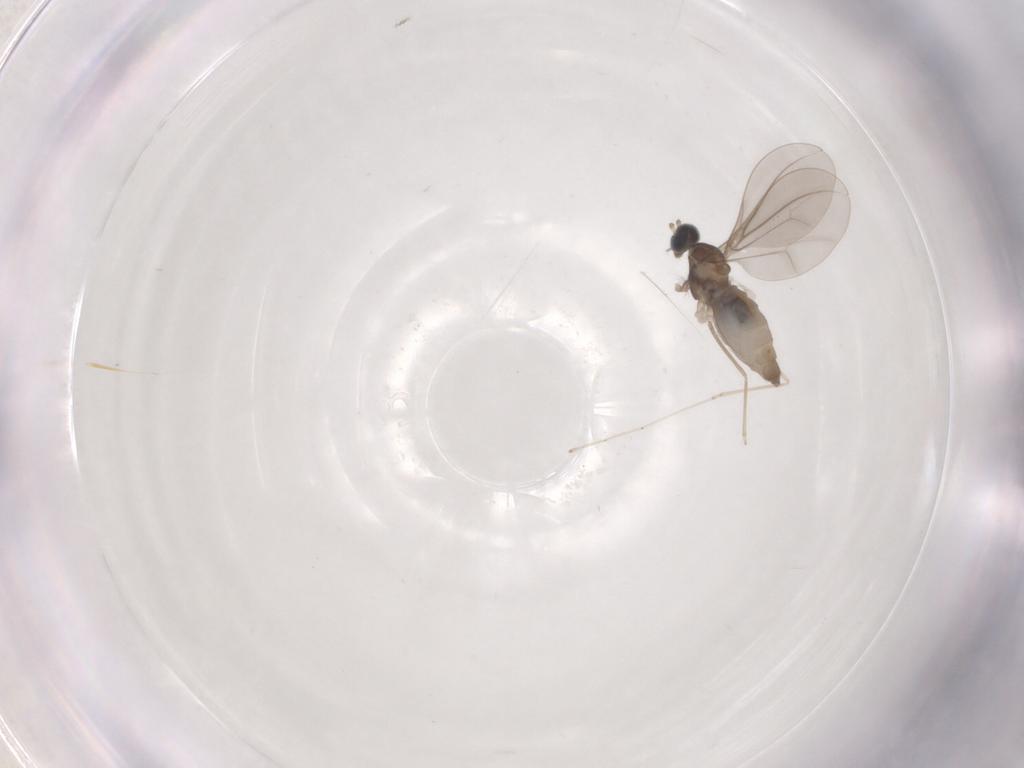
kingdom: Animalia
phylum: Arthropoda
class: Insecta
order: Diptera
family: Cecidomyiidae
